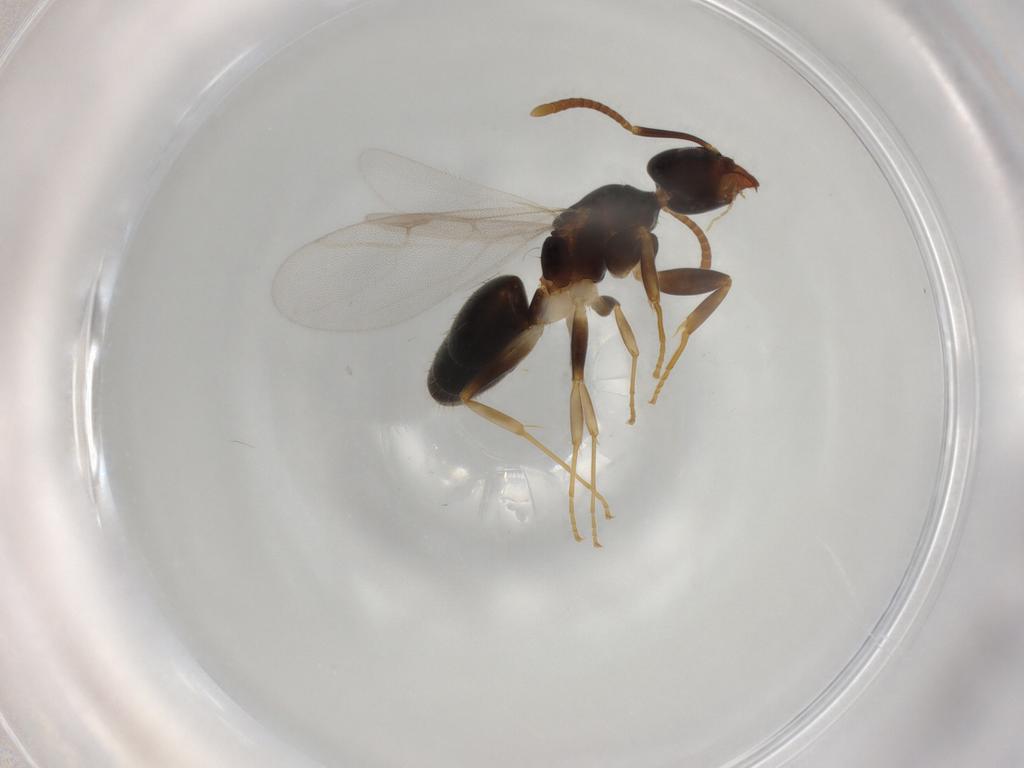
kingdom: Animalia
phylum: Arthropoda
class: Insecta
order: Hymenoptera
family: Formicidae
